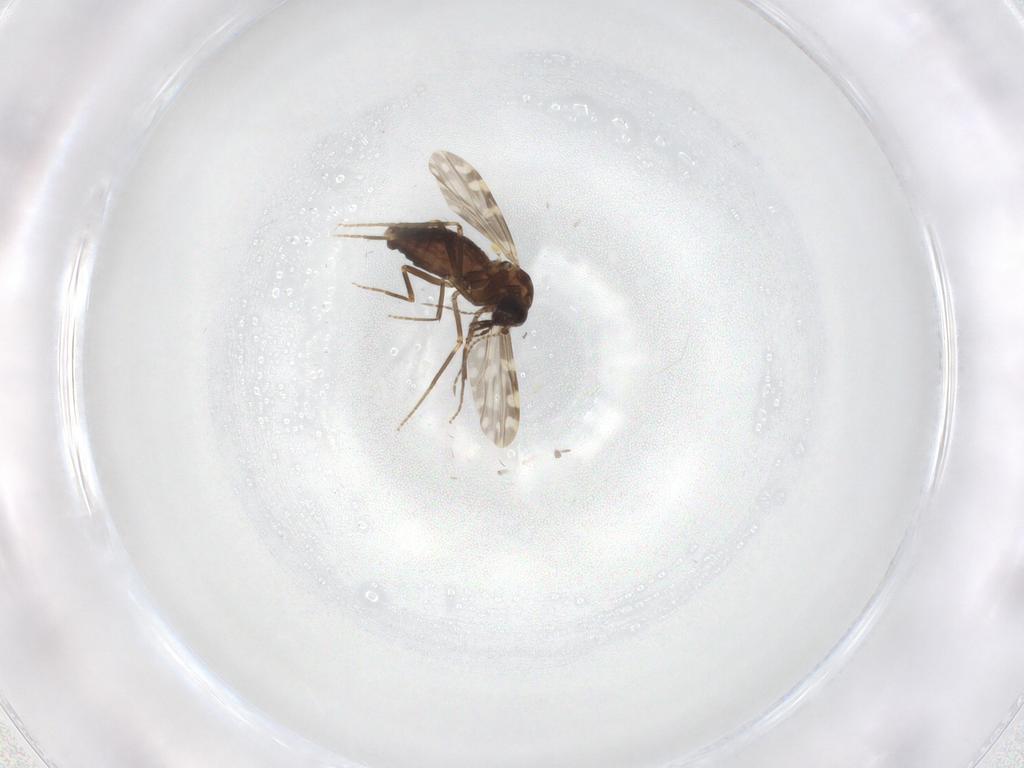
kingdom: Animalia
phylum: Arthropoda
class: Insecta
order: Diptera
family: Ceratopogonidae
